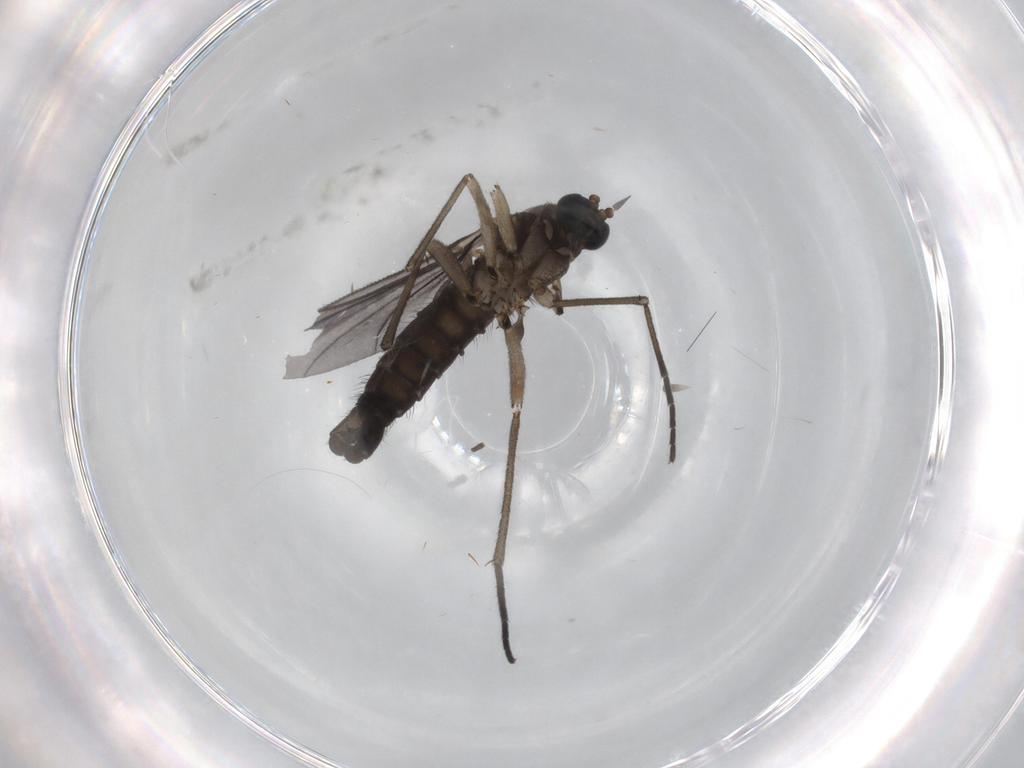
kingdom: Animalia
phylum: Arthropoda
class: Insecta
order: Diptera
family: Sciaridae
